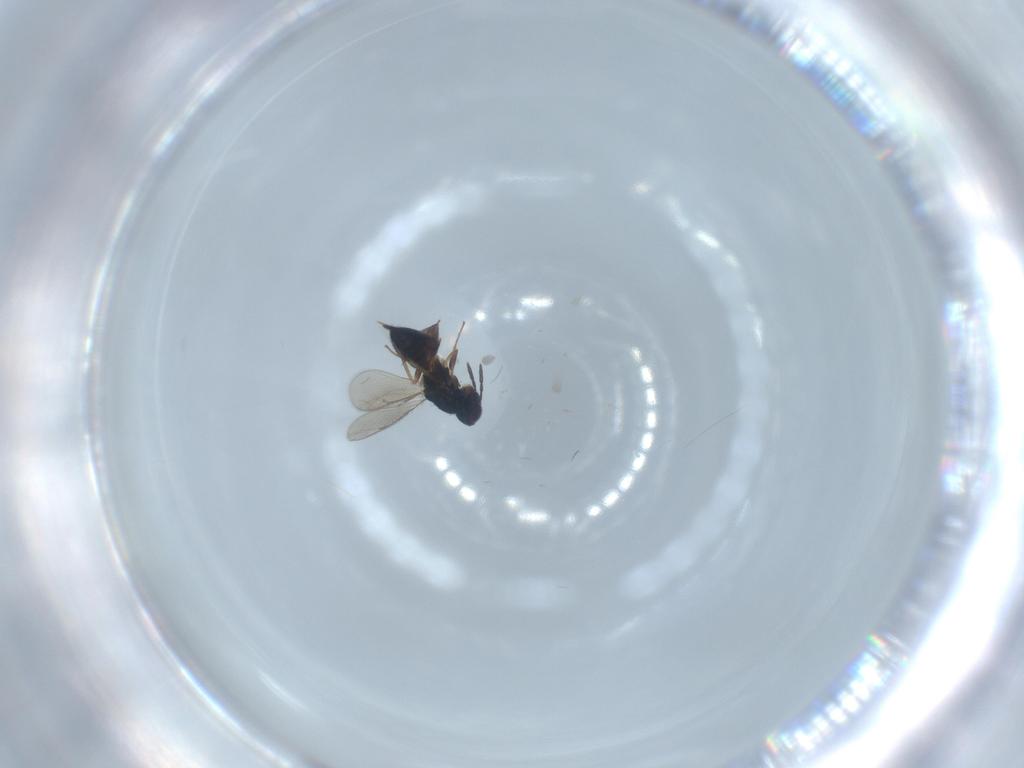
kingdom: Animalia
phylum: Arthropoda
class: Insecta
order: Hymenoptera
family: Eulophidae
